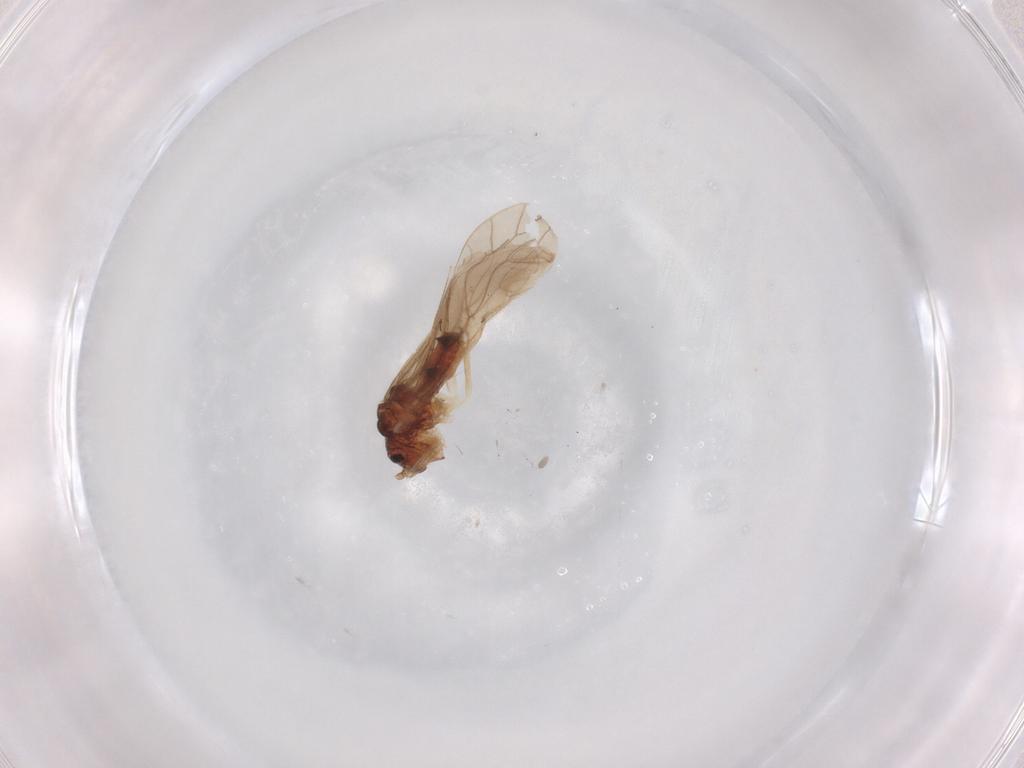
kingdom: Animalia
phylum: Arthropoda
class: Insecta
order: Psocodea
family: Caeciliusidae
